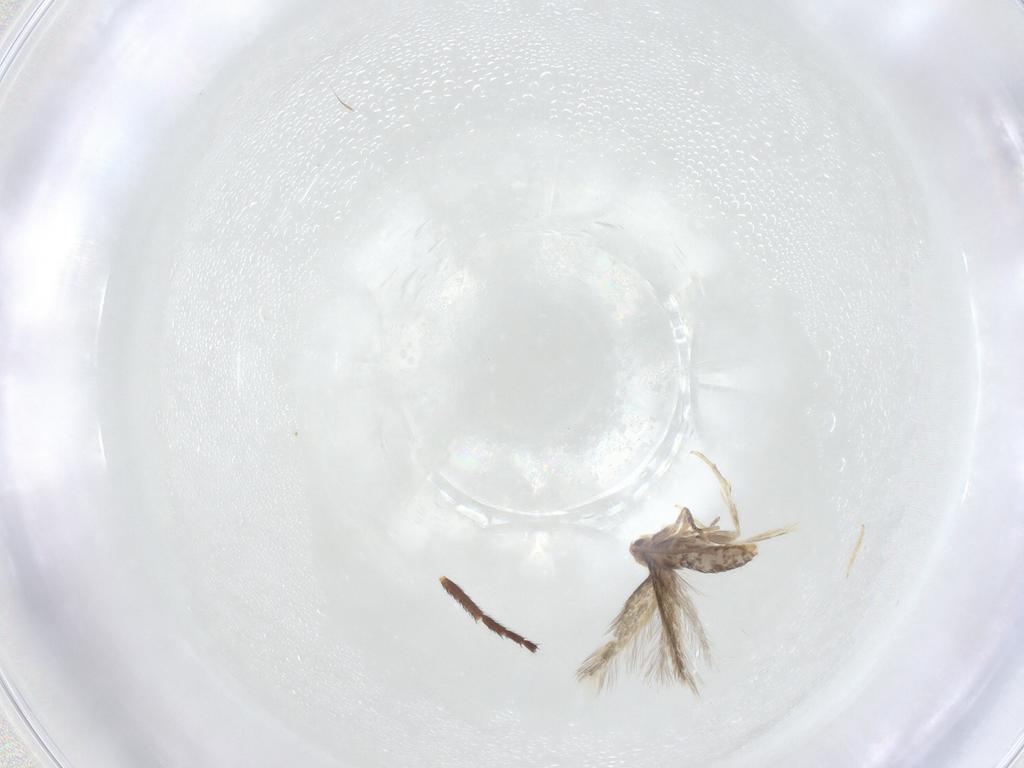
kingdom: Animalia
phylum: Arthropoda
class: Insecta
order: Lepidoptera
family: Nepticulidae
